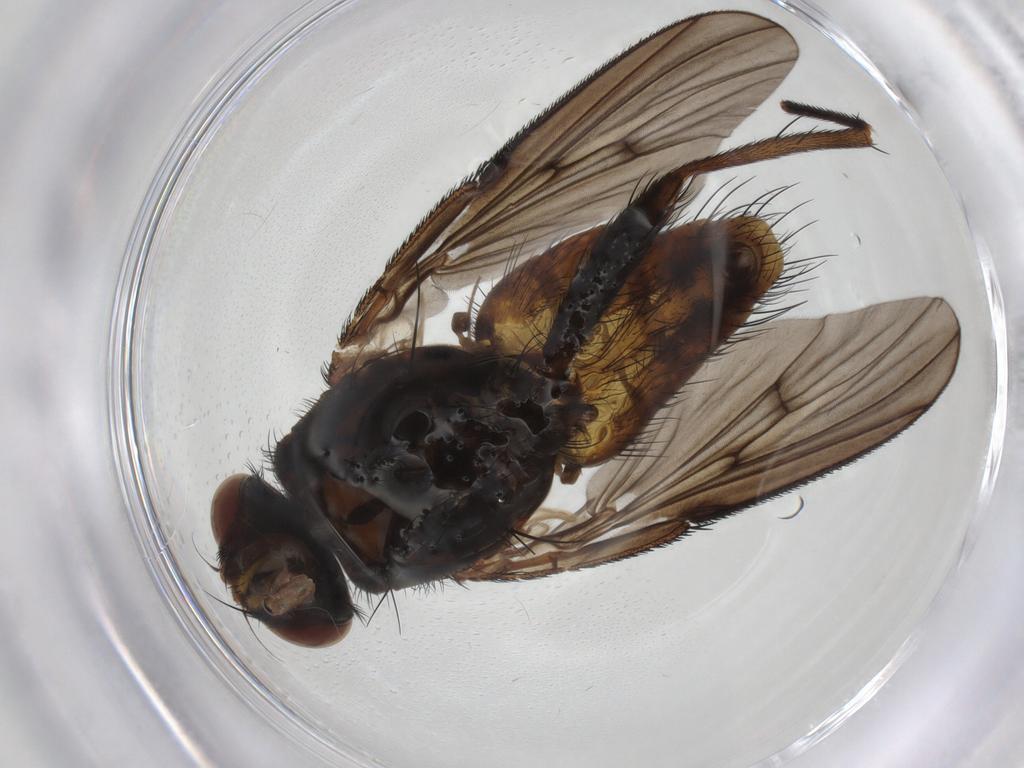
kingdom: Animalia
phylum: Arthropoda
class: Insecta
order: Diptera
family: Muscidae
